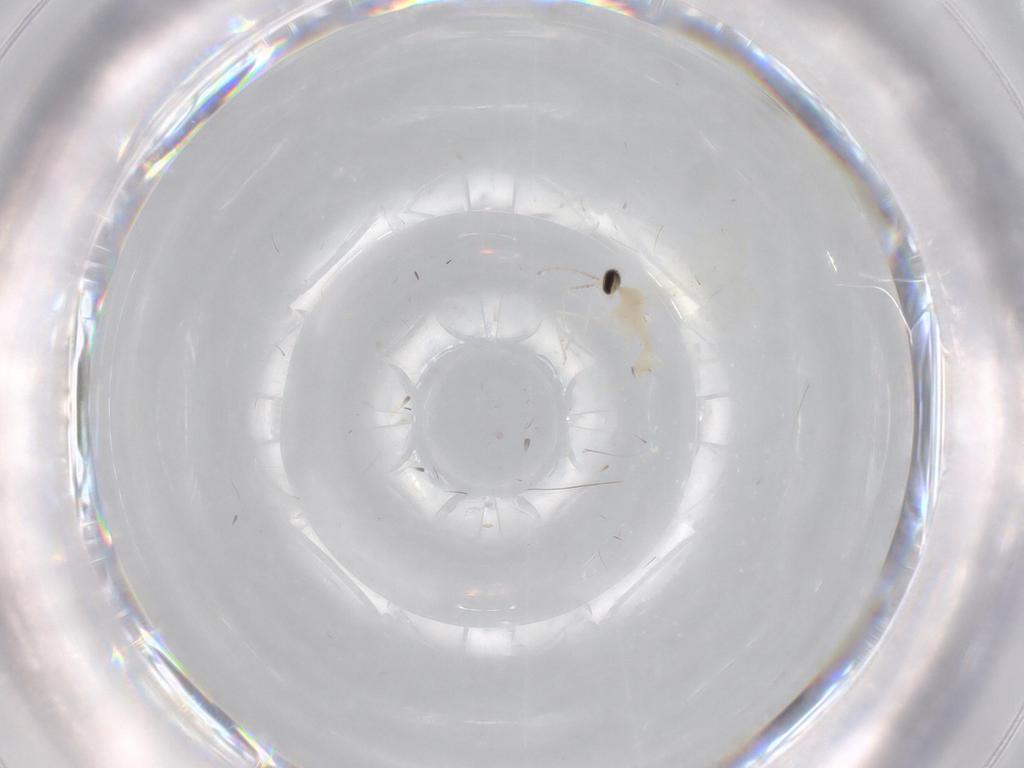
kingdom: Animalia
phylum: Arthropoda
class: Insecta
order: Diptera
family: Cecidomyiidae
